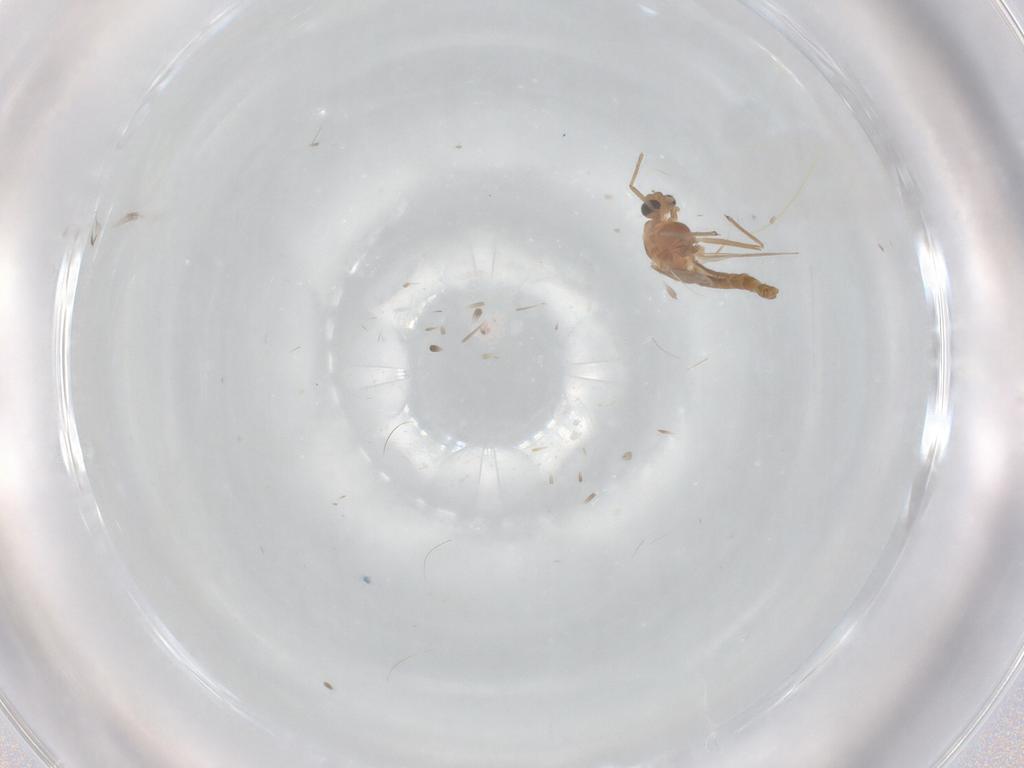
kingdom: Animalia
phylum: Arthropoda
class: Insecta
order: Diptera
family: Chironomidae
